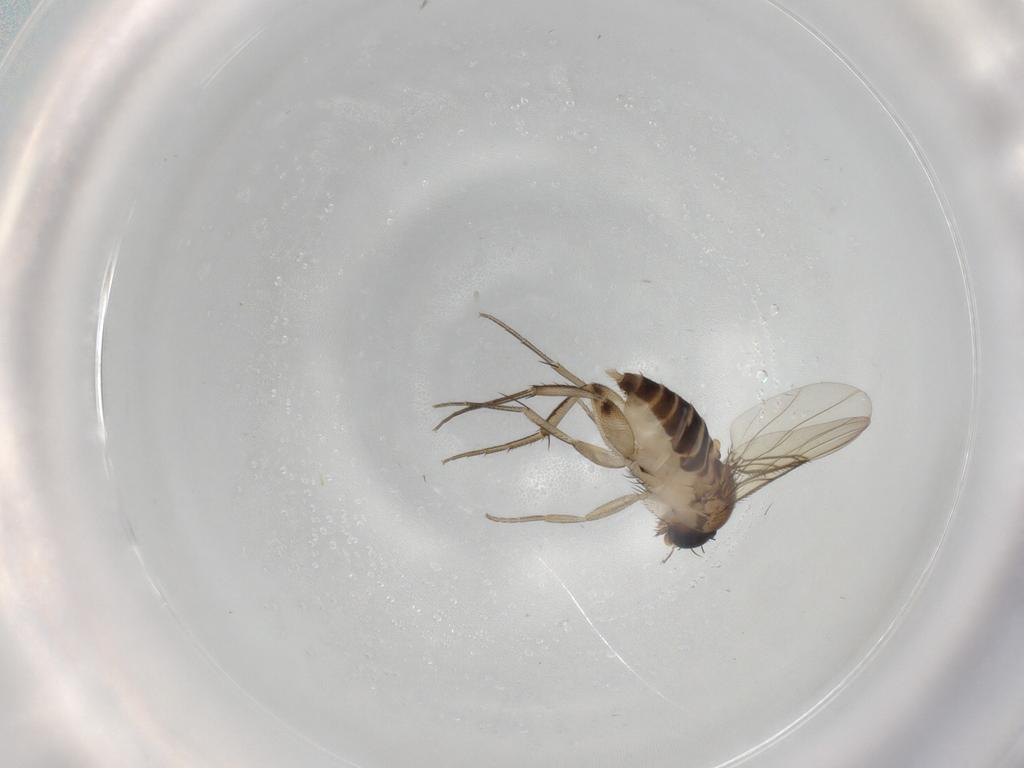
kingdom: Animalia
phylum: Arthropoda
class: Insecta
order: Diptera
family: Phoridae
